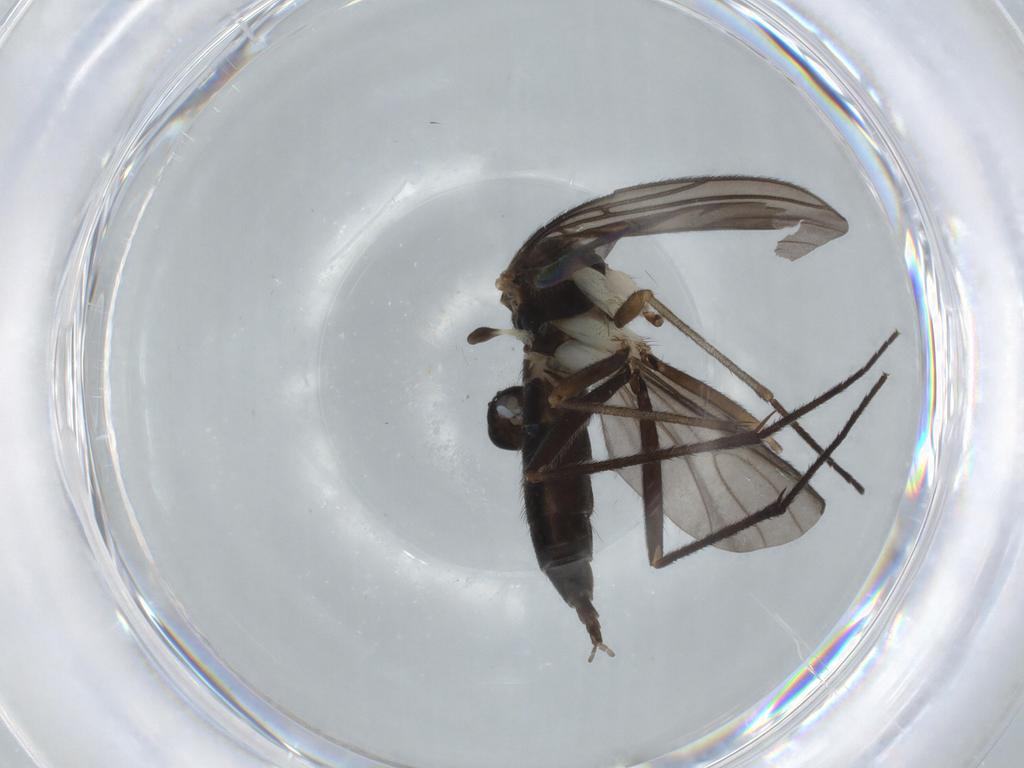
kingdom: Animalia
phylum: Arthropoda
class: Insecta
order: Diptera
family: Sciaridae
